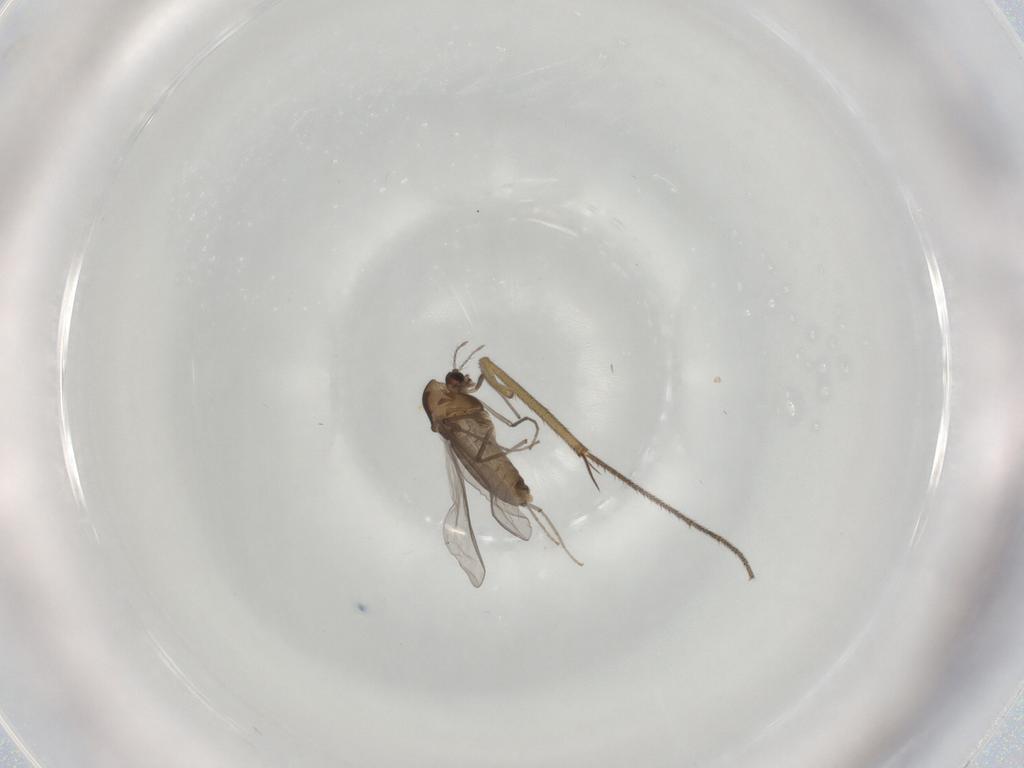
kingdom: Animalia
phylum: Arthropoda
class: Insecta
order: Diptera
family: Chironomidae
